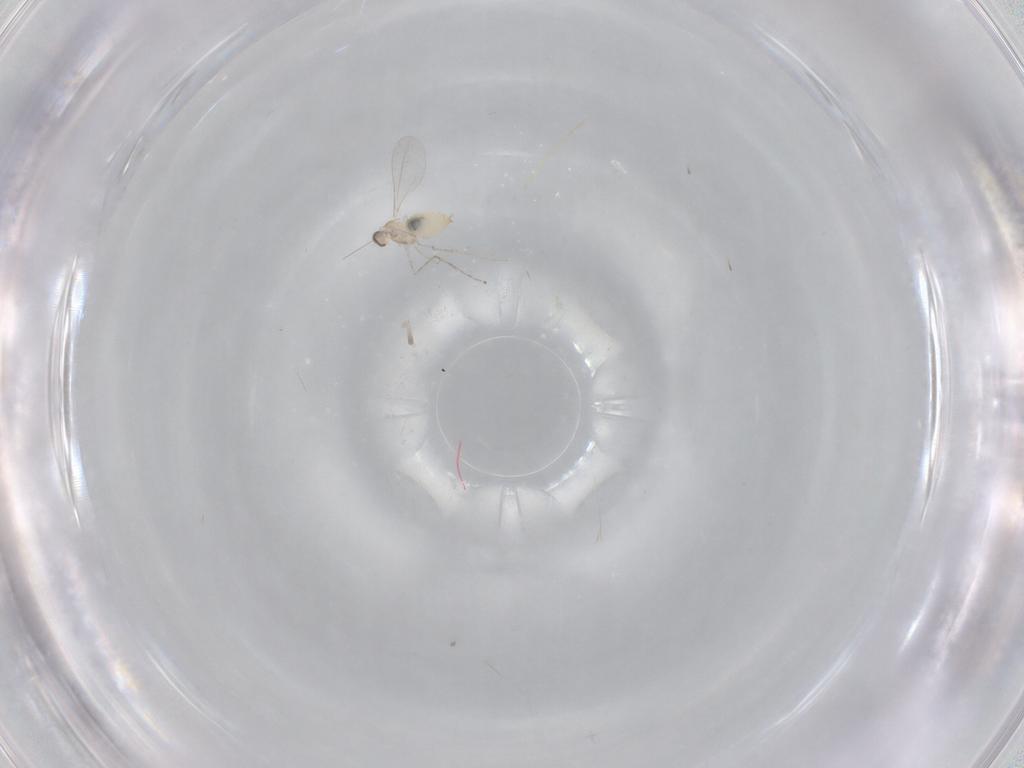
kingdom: Animalia
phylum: Arthropoda
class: Insecta
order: Diptera
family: Cecidomyiidae
